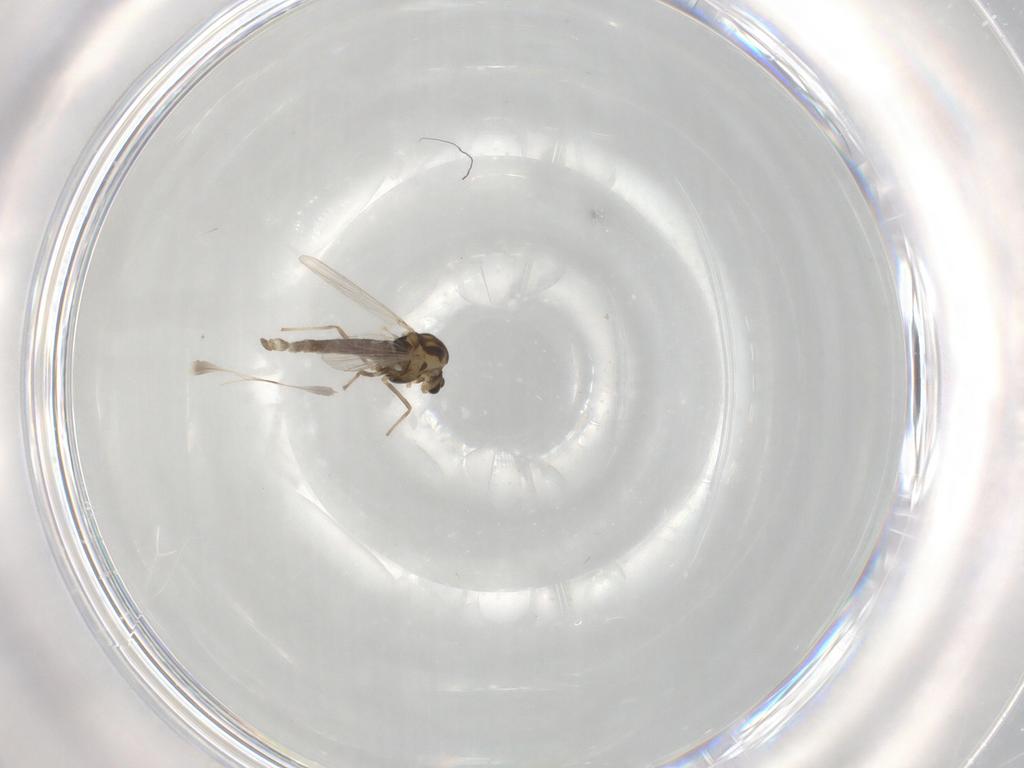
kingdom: Animalia
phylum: Arthropoda
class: Insecta
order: Diptera
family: Chironomidae
